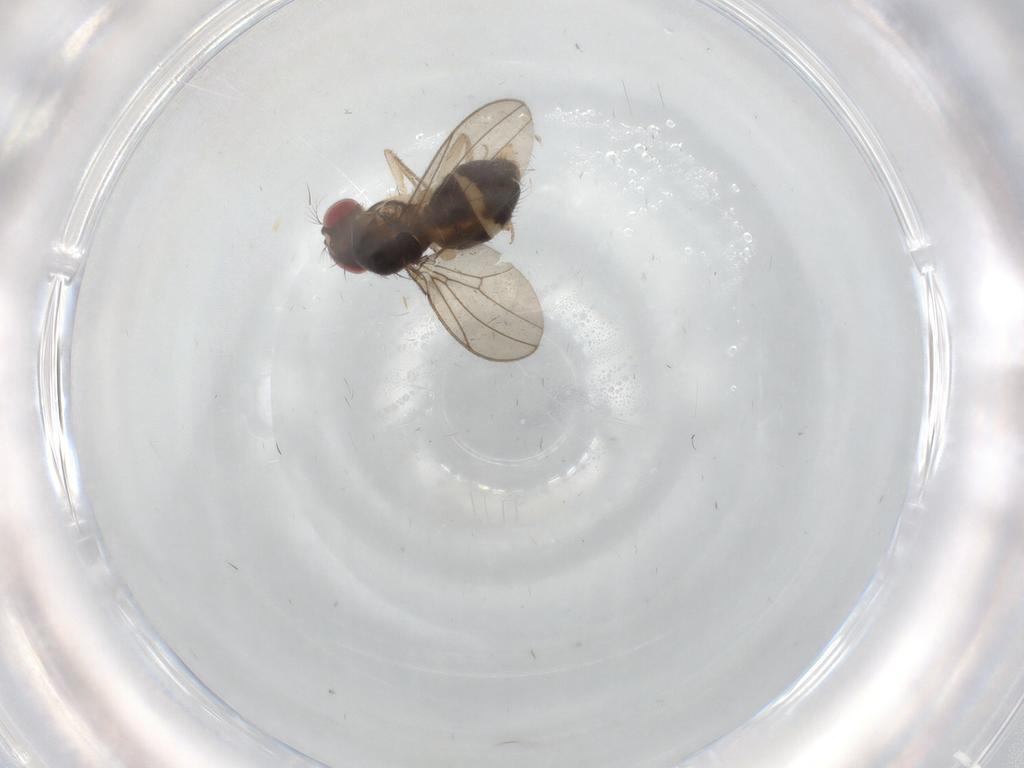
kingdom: Animalia
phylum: Arthropoda
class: Insecta
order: Diptera
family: Drosophilidae
